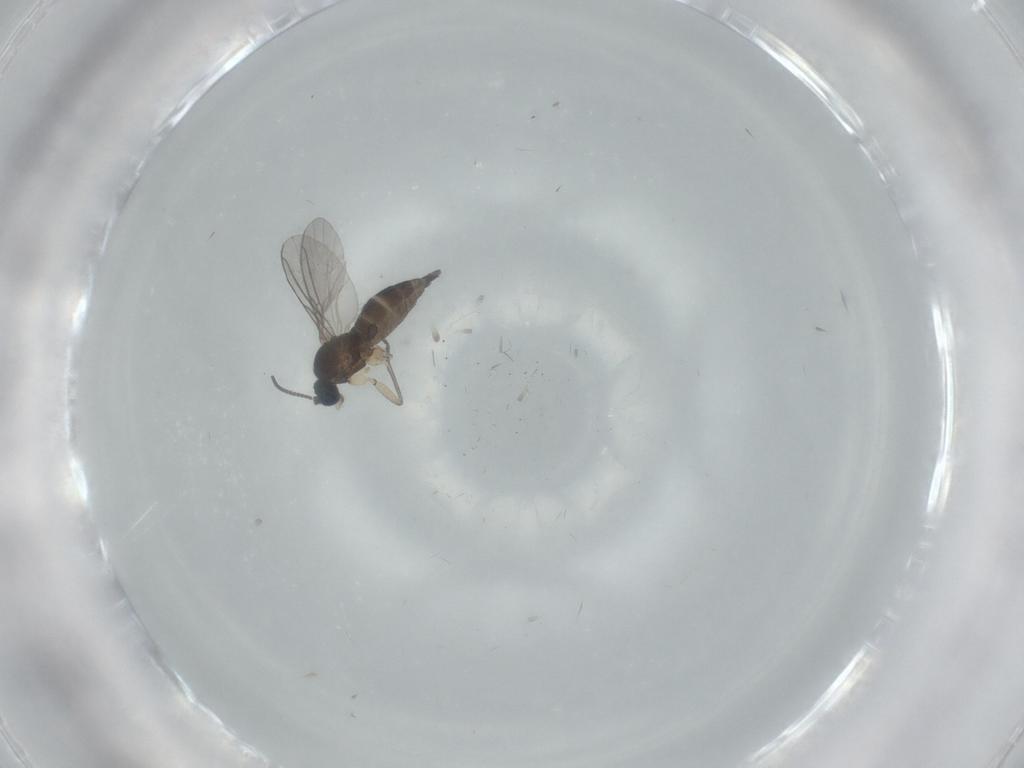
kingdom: Animalia
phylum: Arthropoda
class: Insecta
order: Diptera
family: Sciaridae
